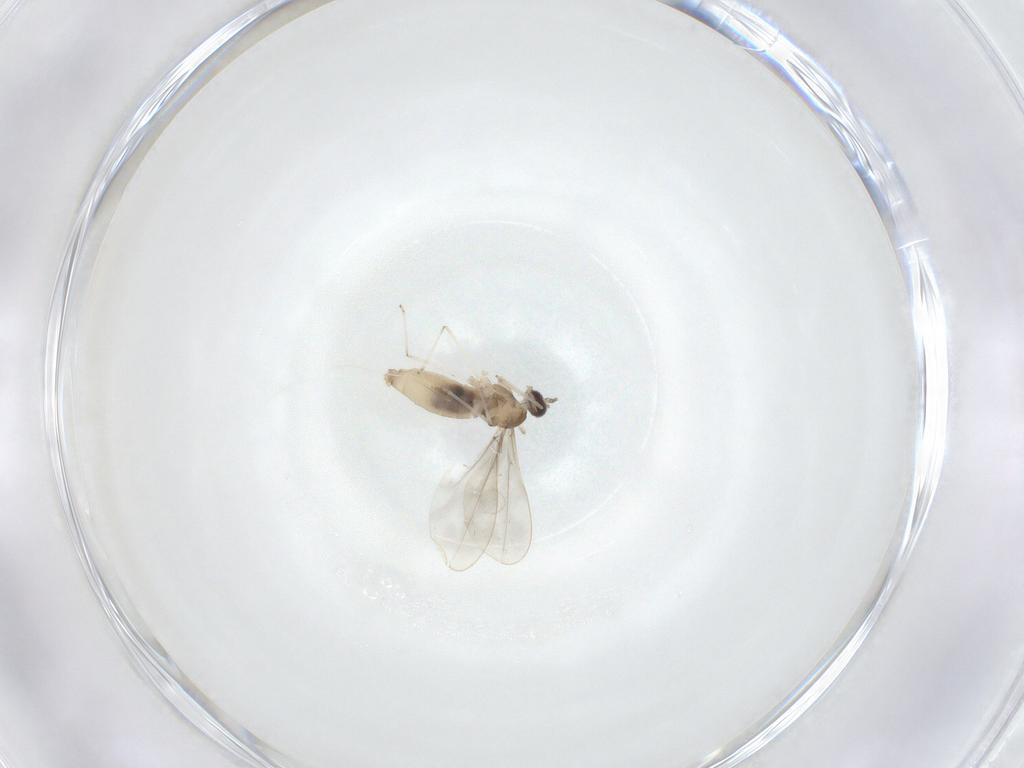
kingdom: Animalia
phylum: Arthropoda
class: Insecta
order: Diptera
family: Cecidomyiidae
